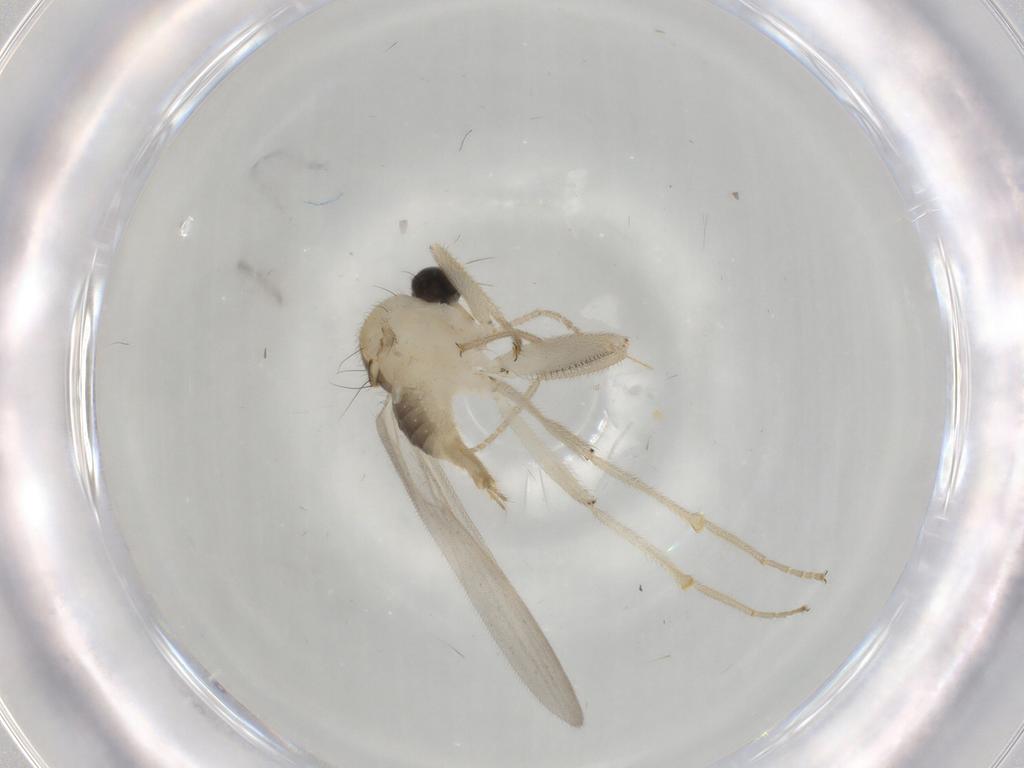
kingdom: Animalia
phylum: Arthropoda
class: Insecta
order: Diptera
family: Hybotidae
